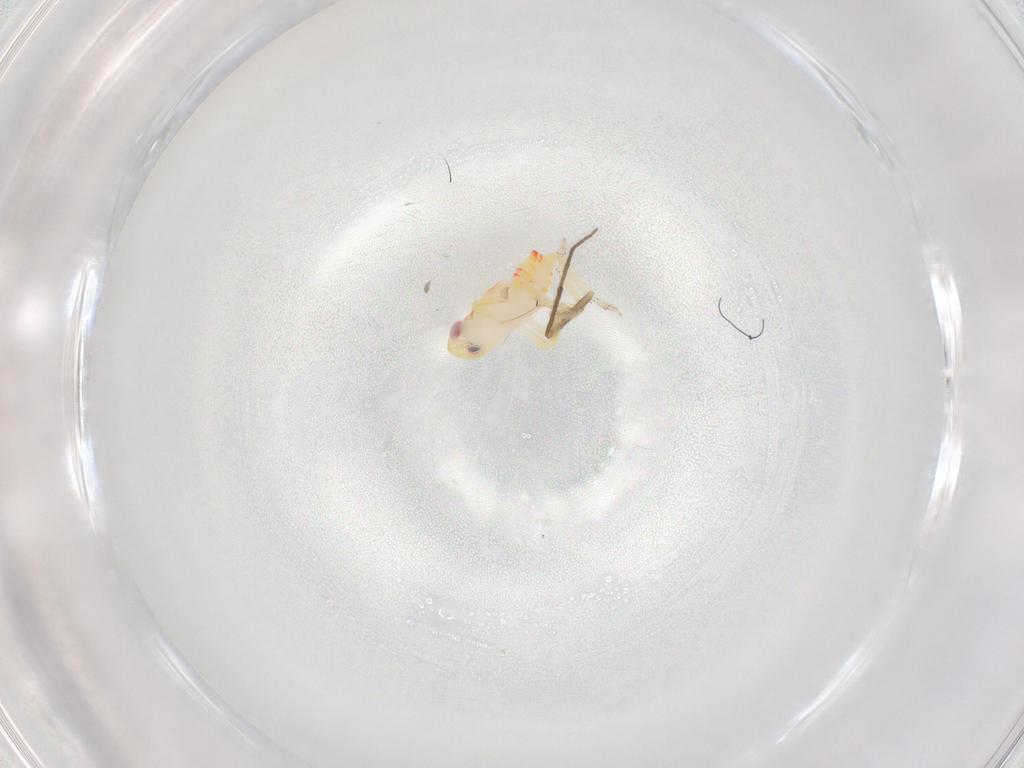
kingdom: Animalia
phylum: Arthropoda
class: Insecta
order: Hemiptera
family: Tropiduchidae
